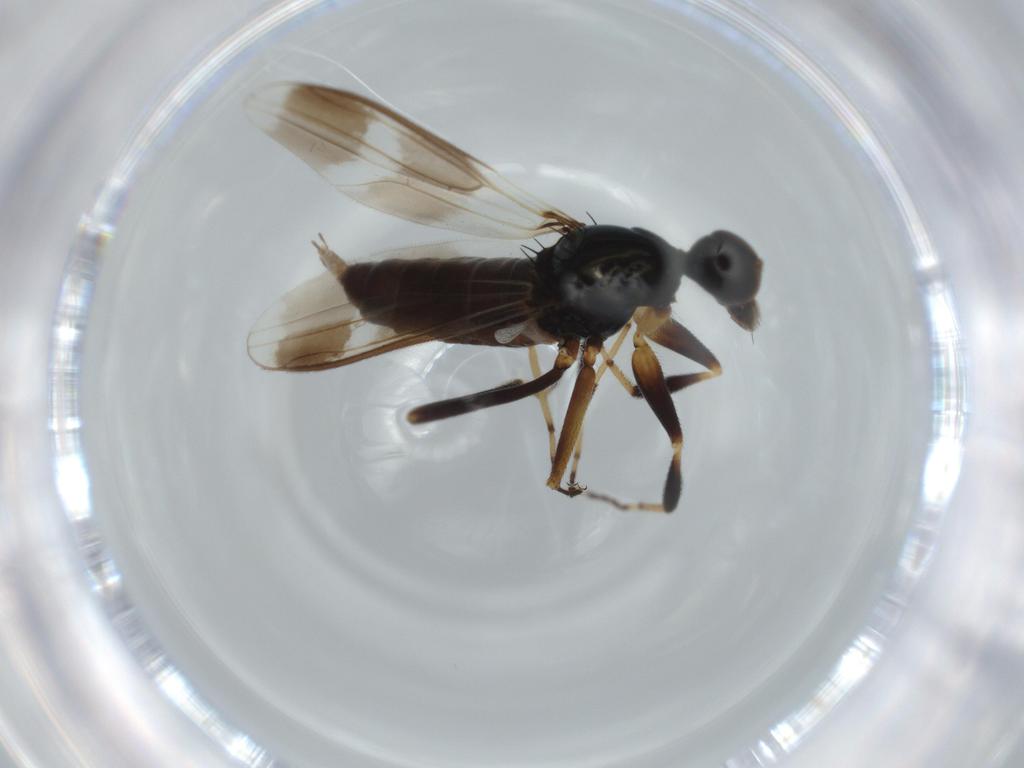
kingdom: Animalia
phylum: Arthropoda
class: Insecta
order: Diptera
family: Hybotidae
